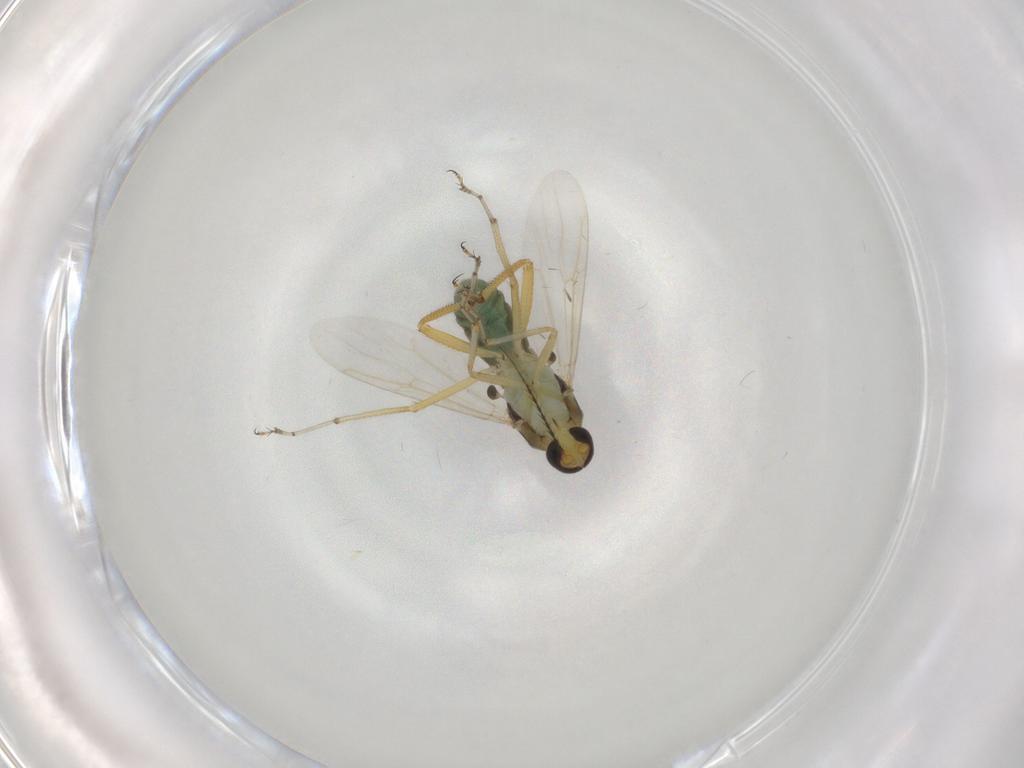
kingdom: Animalia
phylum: Arthropoda
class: Insecta
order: Diptera
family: Ceratopogonidae
